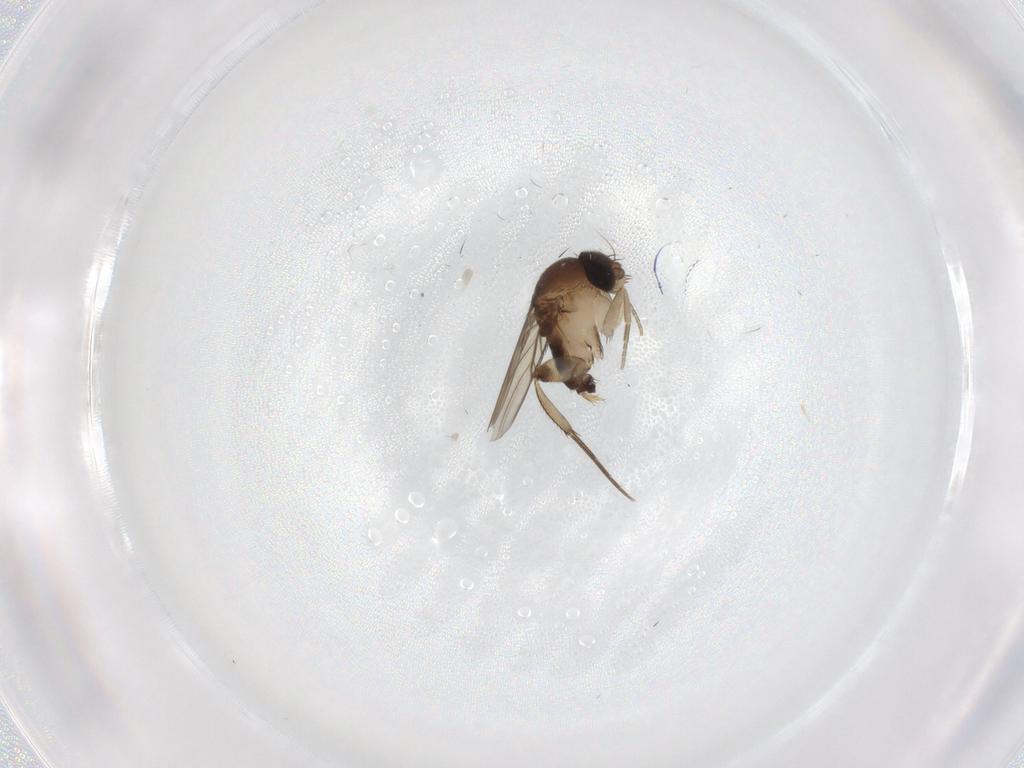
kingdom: Animalia
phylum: Arthropoda
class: Insecta
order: Diptera
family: Phoridae
